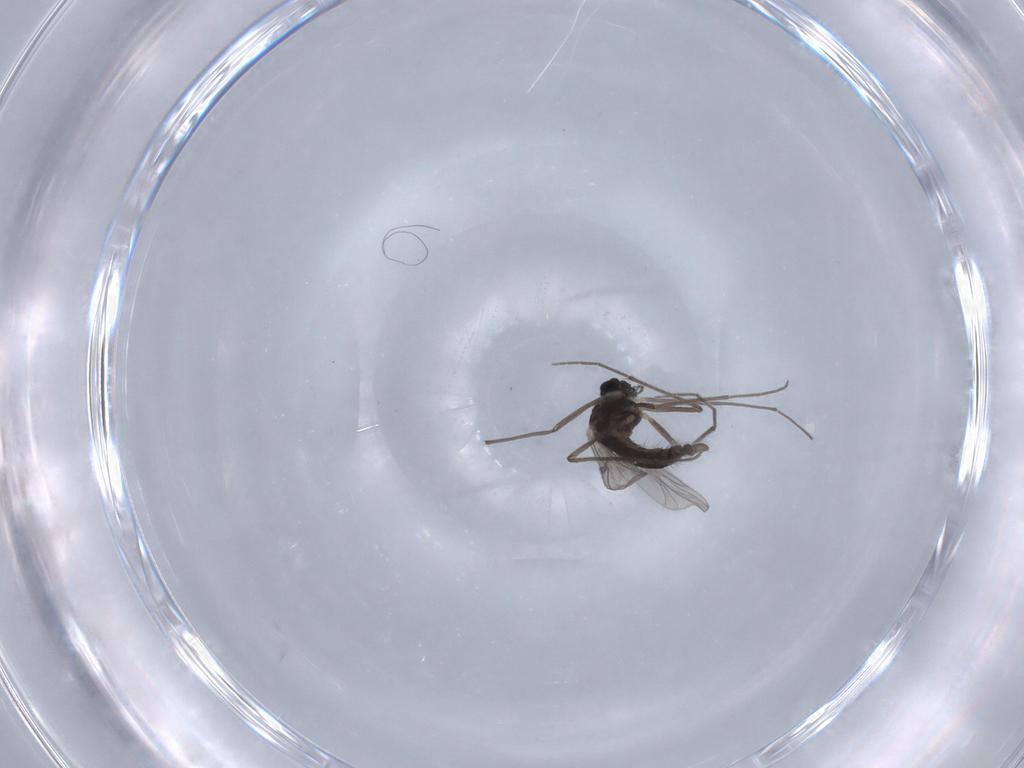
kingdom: Animalia
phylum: Arthropoda
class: Insecta
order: Diptera
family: Chironomidae
